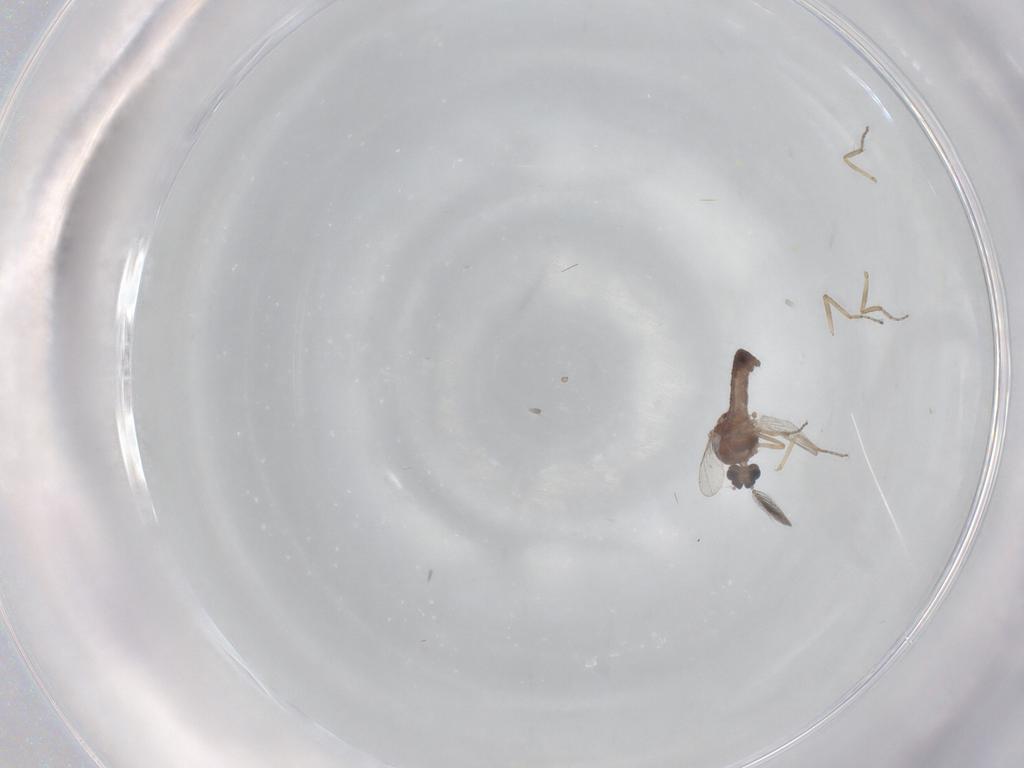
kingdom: Animalia
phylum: Arthropoda
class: Insecta
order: Diptera
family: Ceratopogonidae
